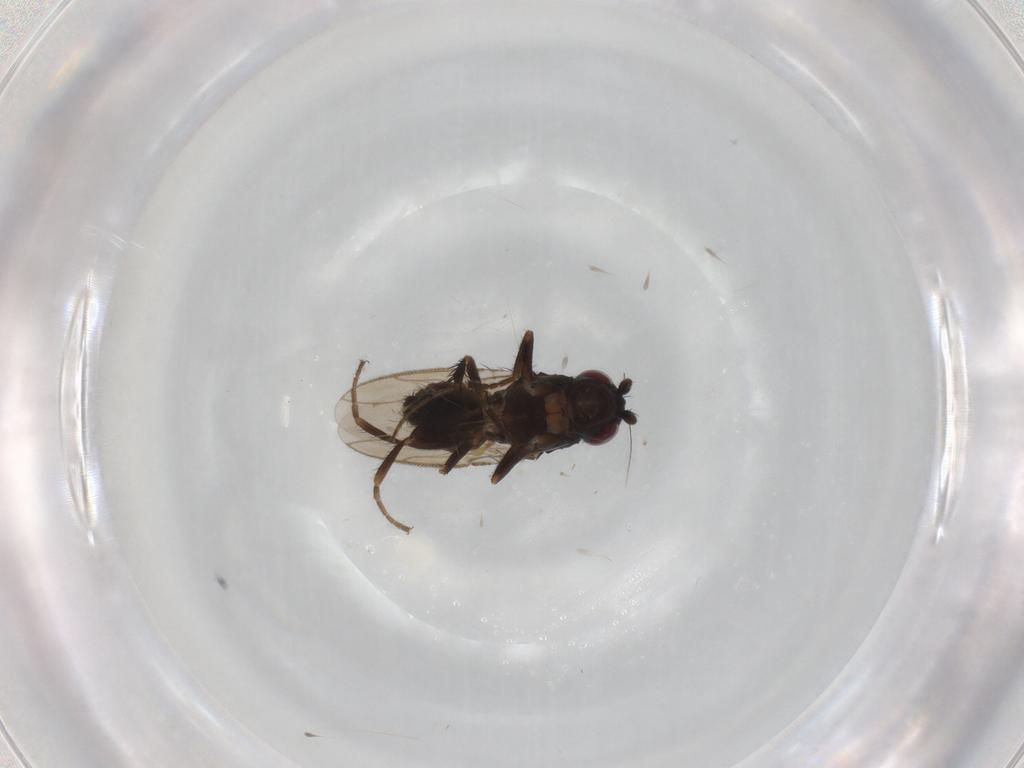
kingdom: Animalia
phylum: Arthropoda
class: Insecta
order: Diptera
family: Sphaeroceridae
